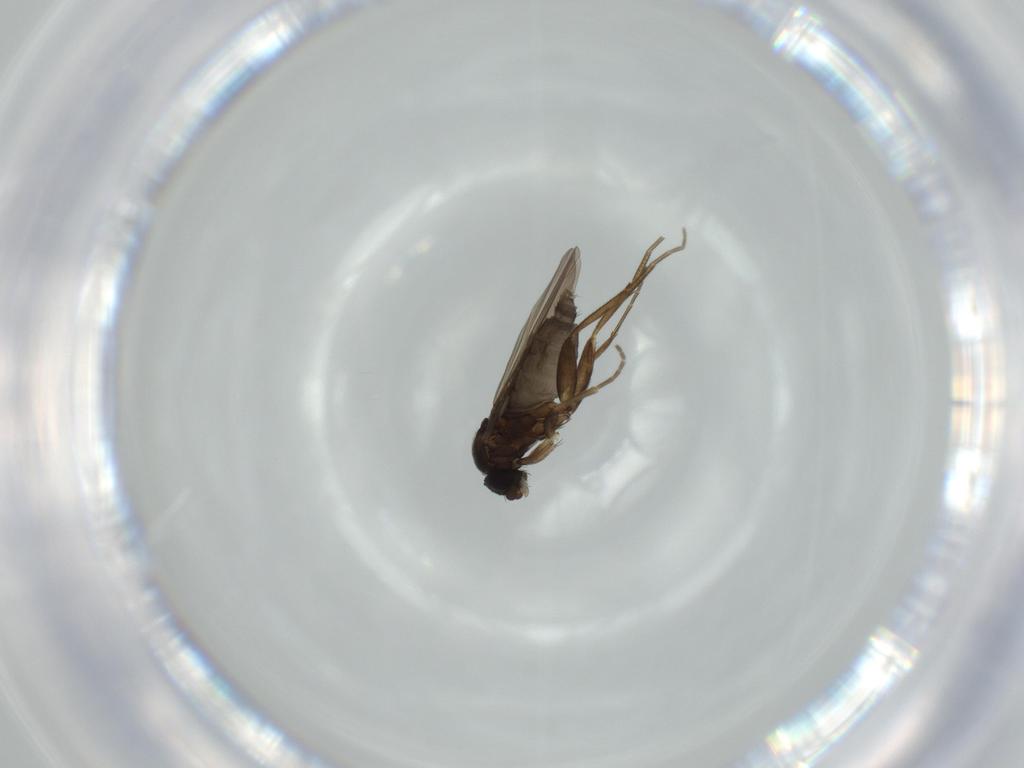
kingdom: Animalia
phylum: Arthropoda
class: Insecta
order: Diptera
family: Phoridae
